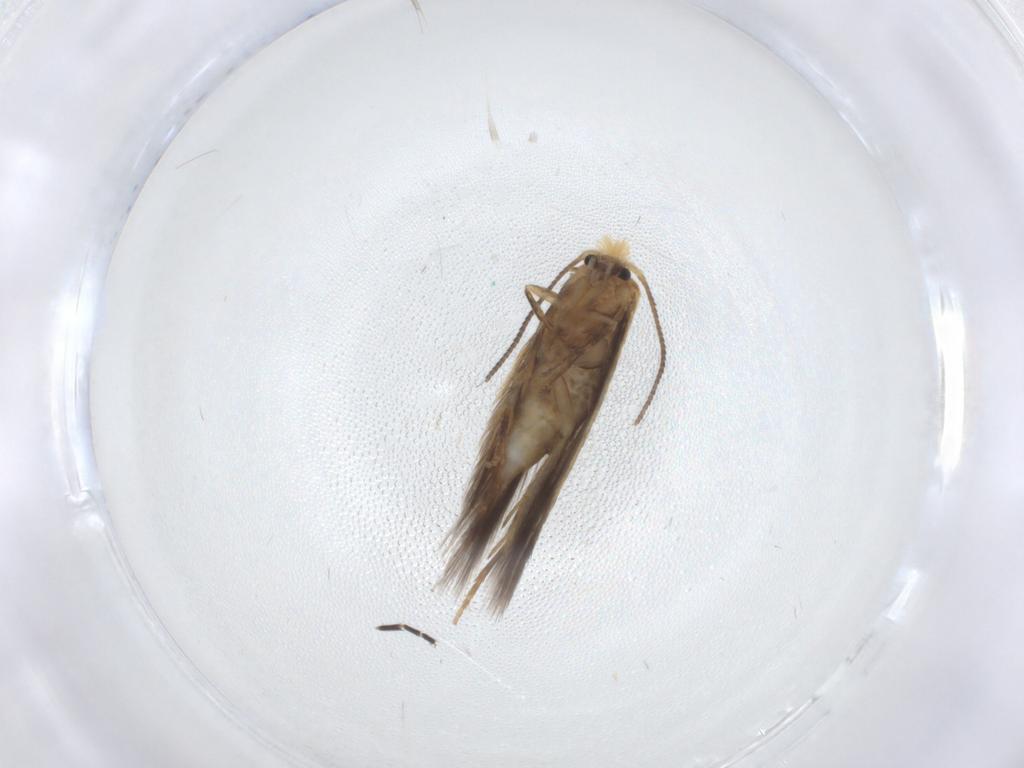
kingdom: Animalia
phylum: Arthropoda
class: Insecta
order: Lepidoptera
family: Nepticulidae
